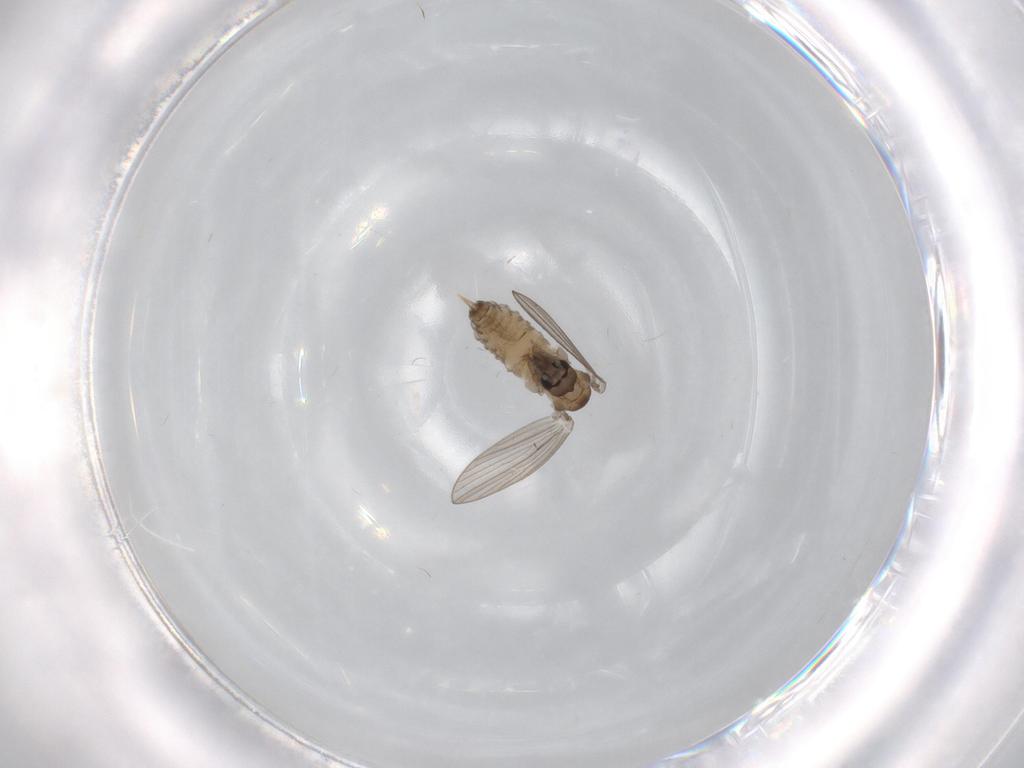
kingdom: Animalia
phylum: Arthropoda
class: Insecta
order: Diptera
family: Psychodidae
